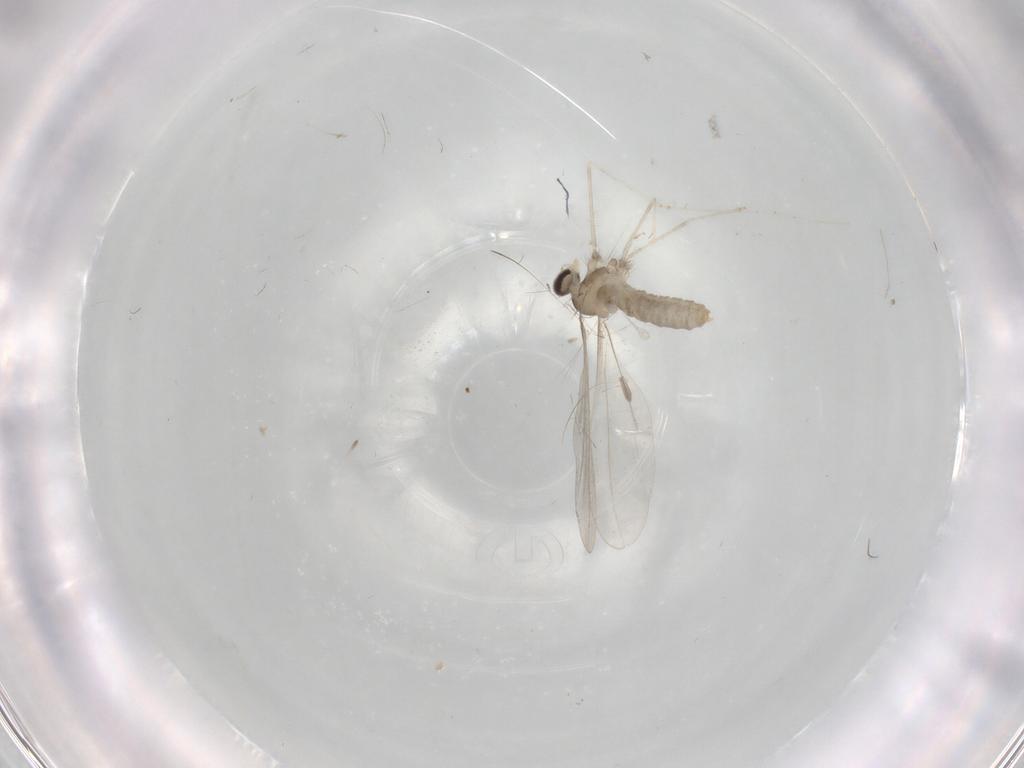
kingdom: Animalia
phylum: Arthropoda
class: Insecta
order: Diptera
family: Cecidomyiidae
